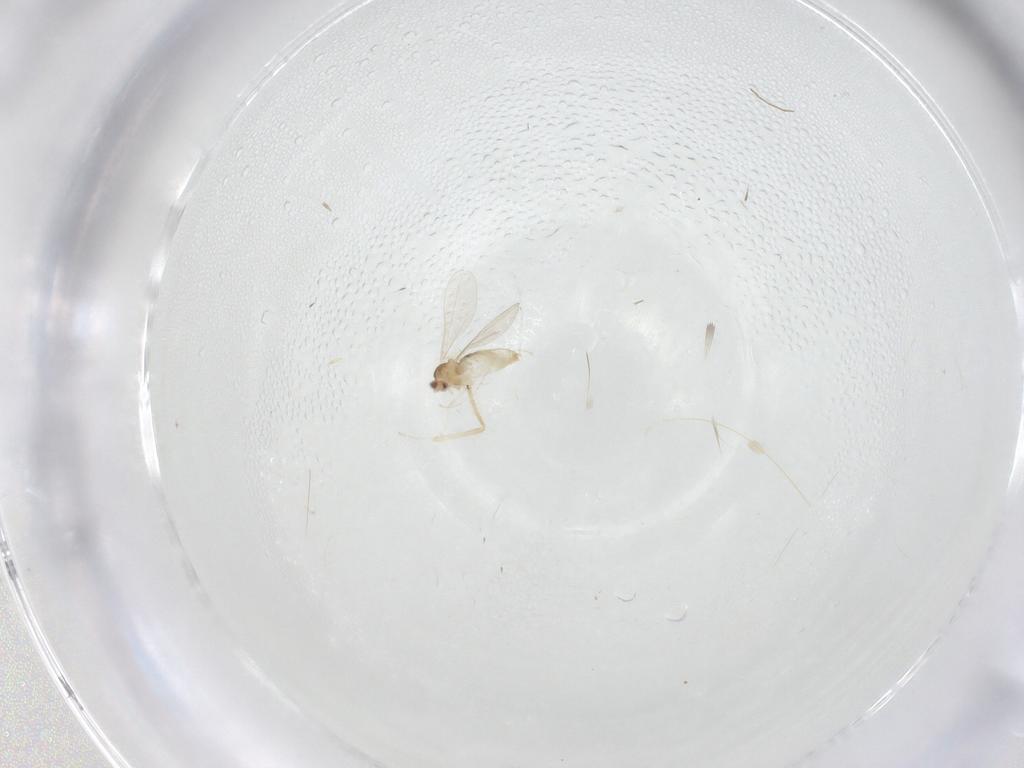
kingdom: Animalia
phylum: Arthropoda
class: Insecta
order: Diptera
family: Cecidomyiidae
